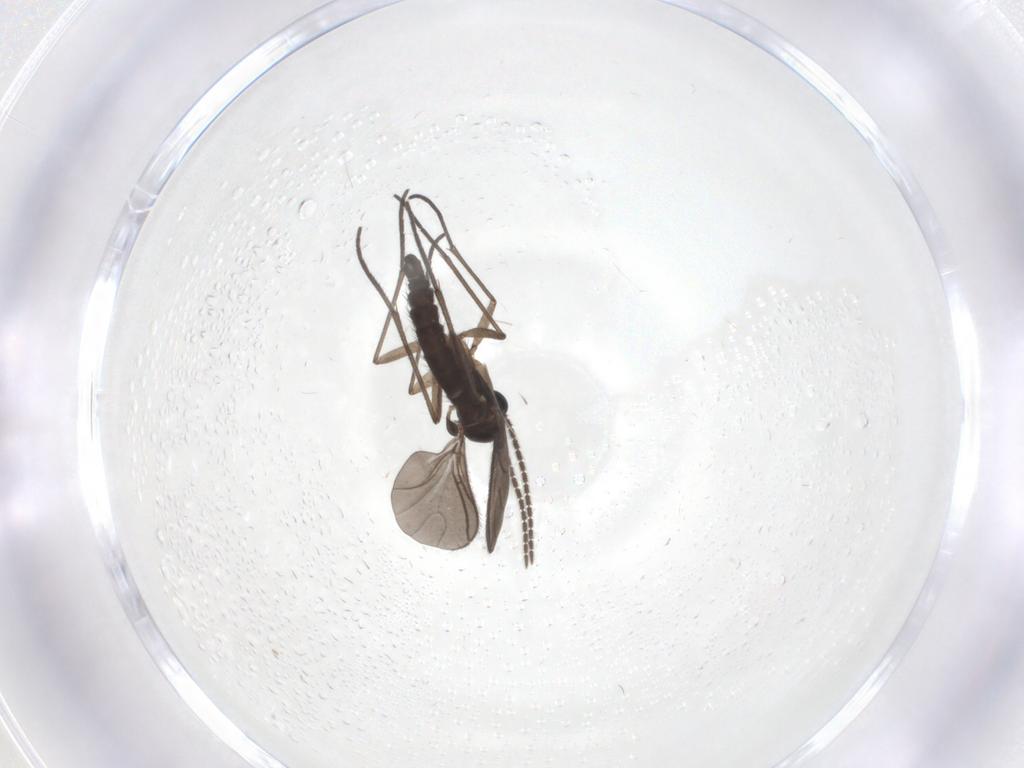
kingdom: Animalia
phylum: Arthropoda
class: Insecta
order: Diptera
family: Sciaridae
